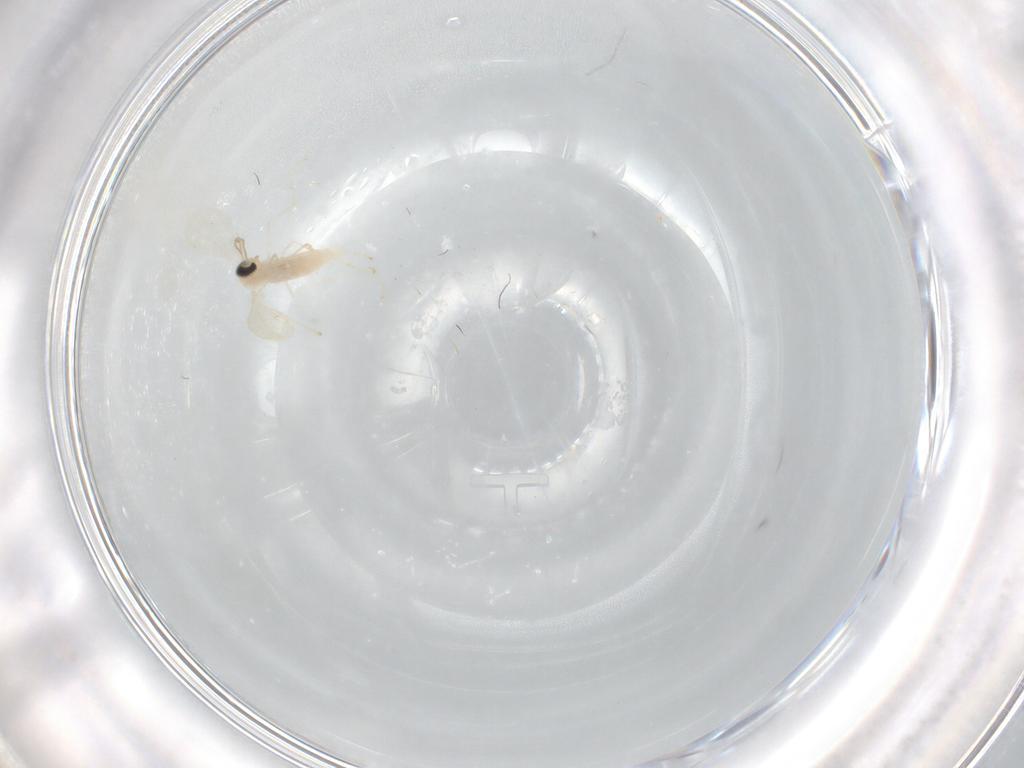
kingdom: Animalia
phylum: Arthropoda
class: Insecta
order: Diptera
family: Cecidomyiidae
